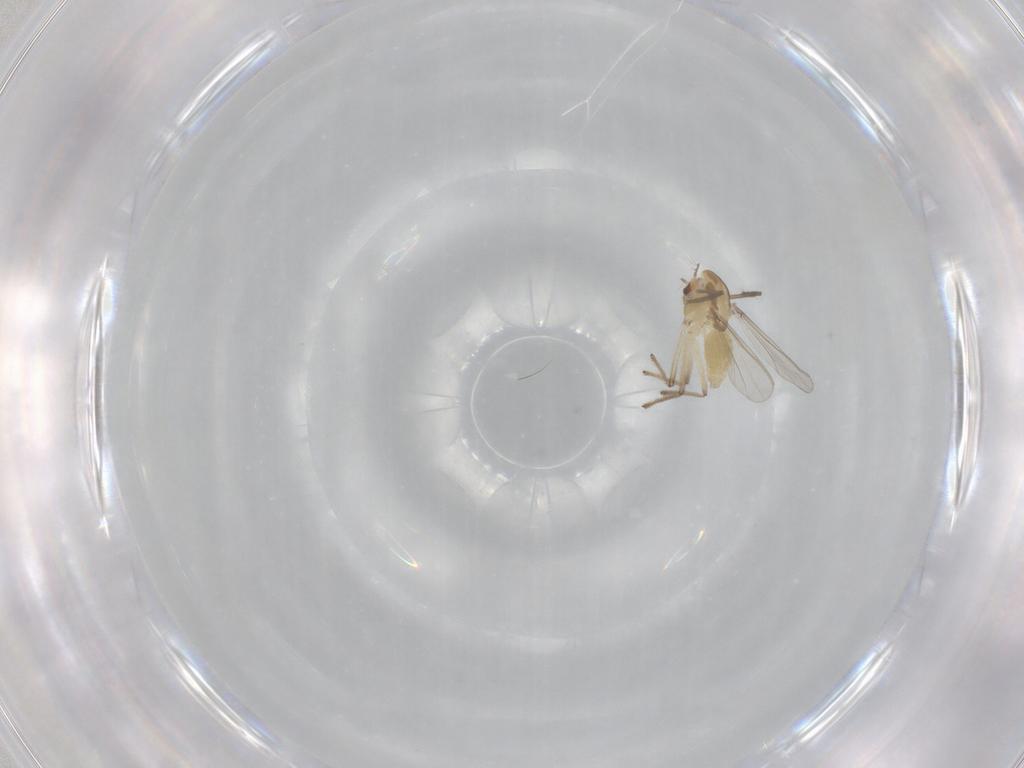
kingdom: Animalia
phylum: Arthropoda
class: Insecta
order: Diptera
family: Chironomidae
